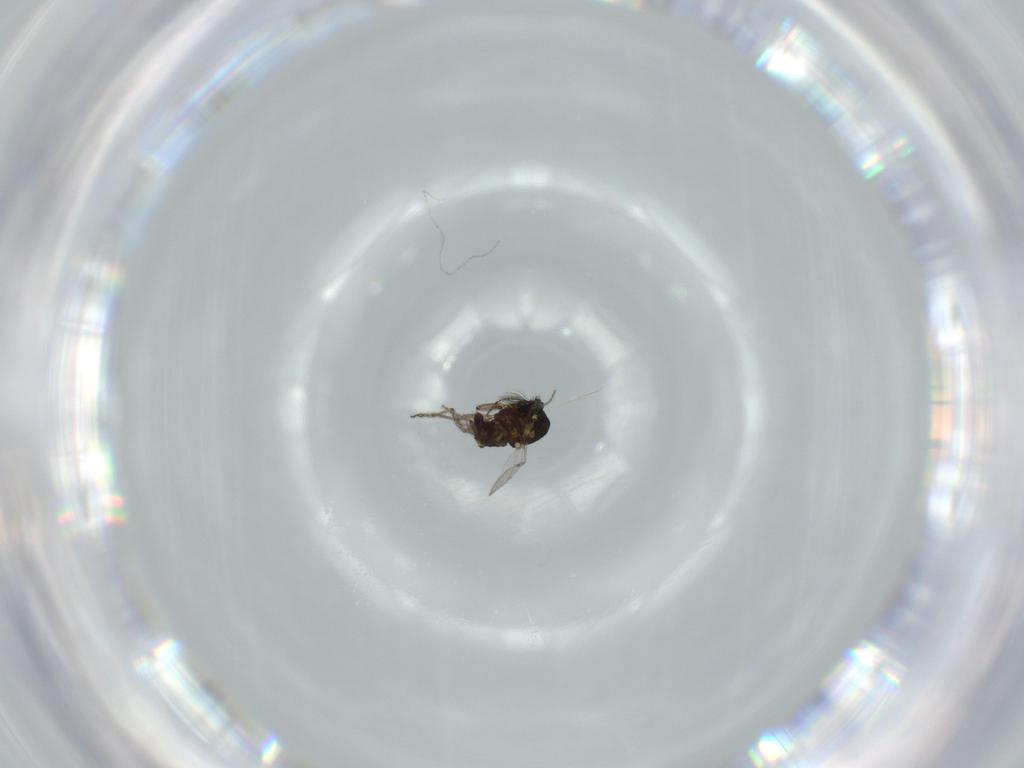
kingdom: Animalia
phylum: Arthropoda
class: Insecta
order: Diptera
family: Ceratopogonidae
